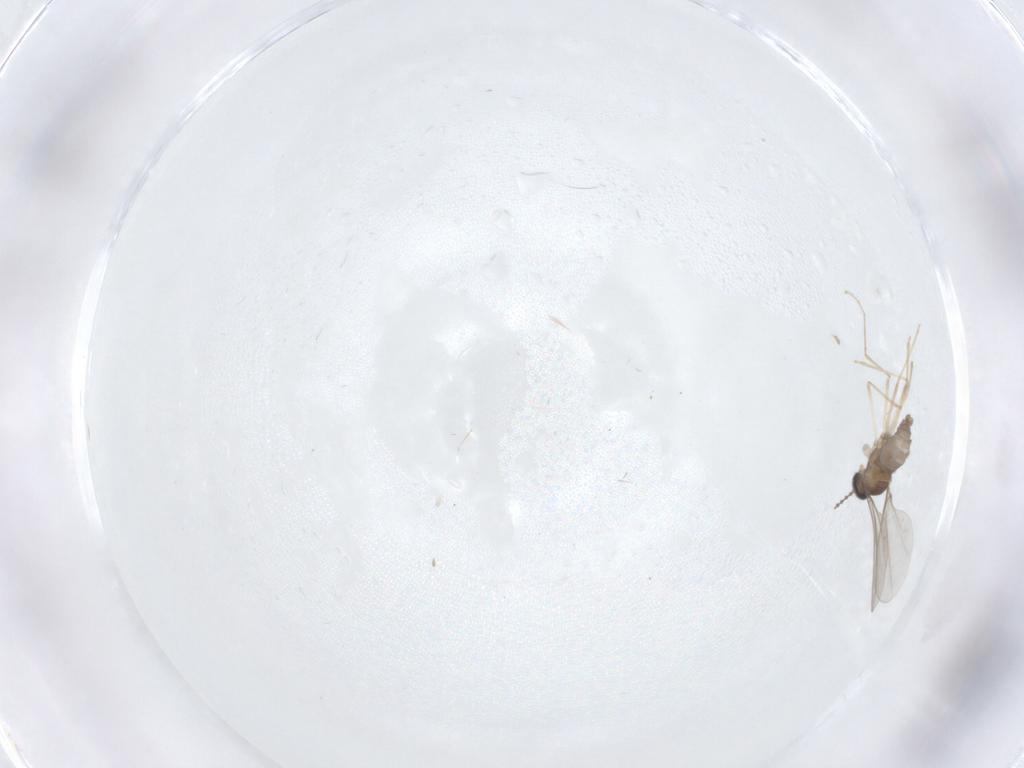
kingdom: Animalia
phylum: Arthropoda
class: Insecta
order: Diptera
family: Cecidomyiidae
